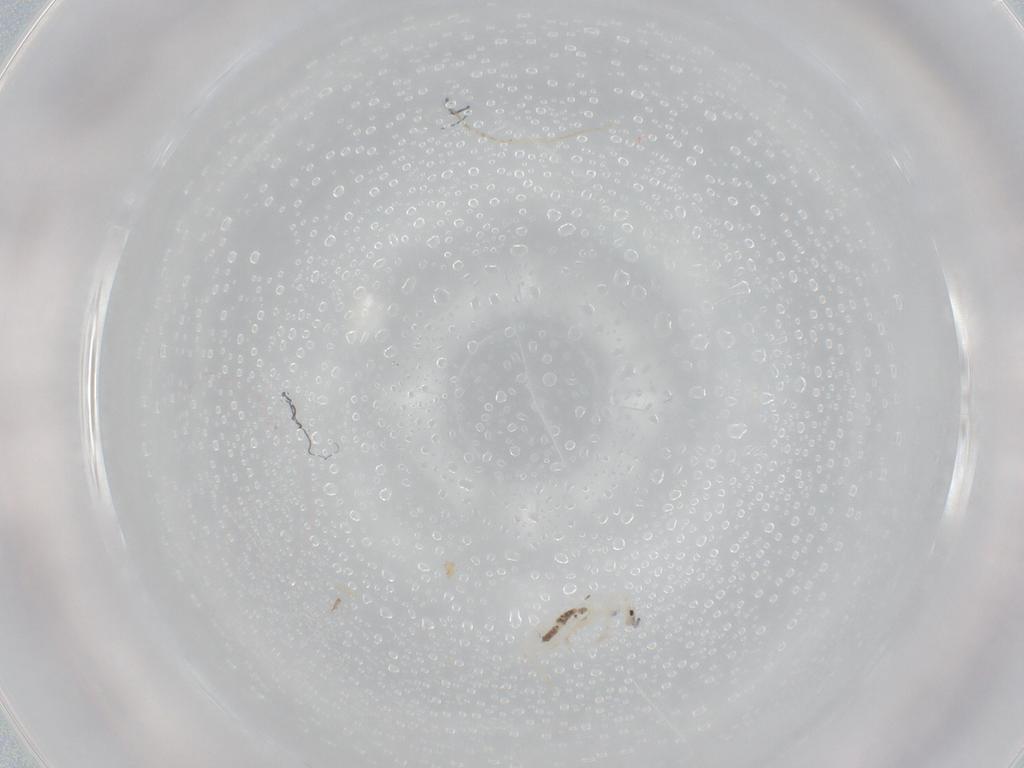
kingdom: Animalia
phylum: Arthropoda
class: Collembola
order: Entomobryomorpha
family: Entomobryidae
